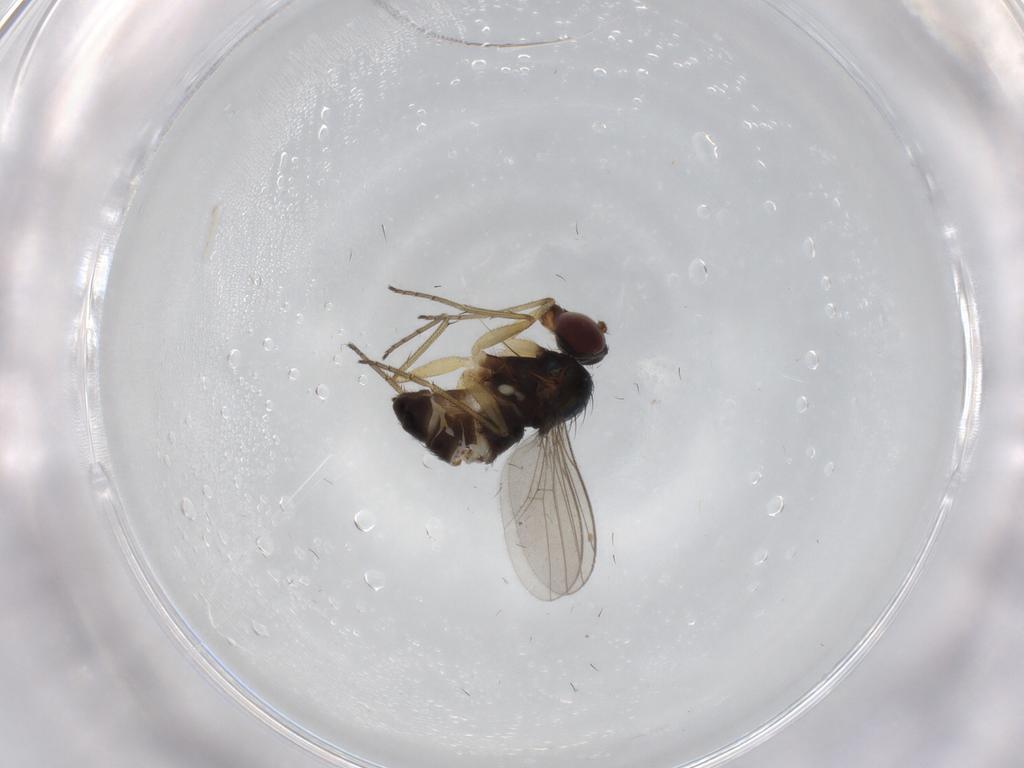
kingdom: Animalia
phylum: Arthropoda
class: Insecta
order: Diptera
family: Dolichopodidae
